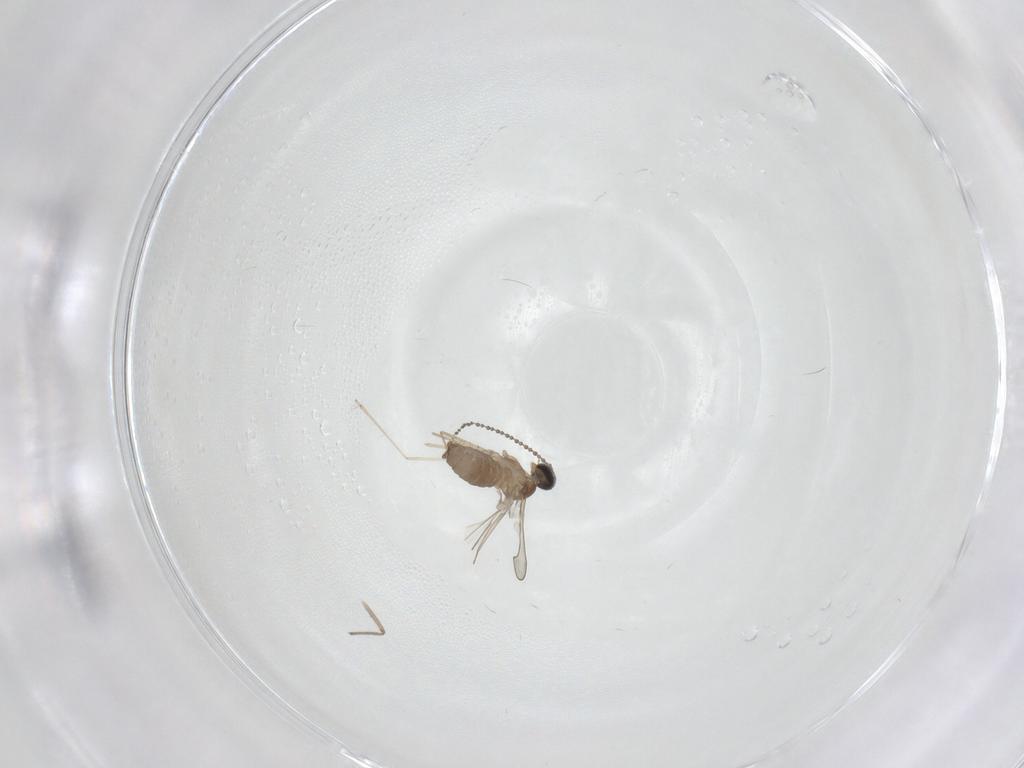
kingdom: Animalia
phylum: Arthropoda
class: Insecta
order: Diptera
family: Chironomidae
